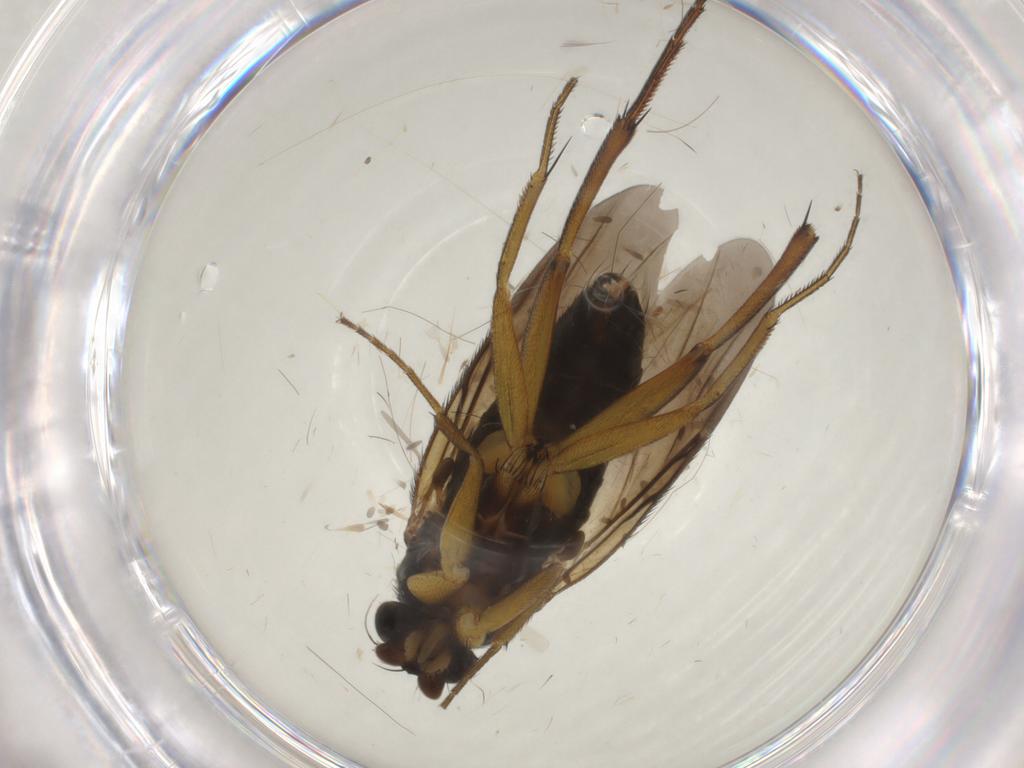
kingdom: Animalia
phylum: Arthropoda
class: Insecta
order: Diptera
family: Phoridae
